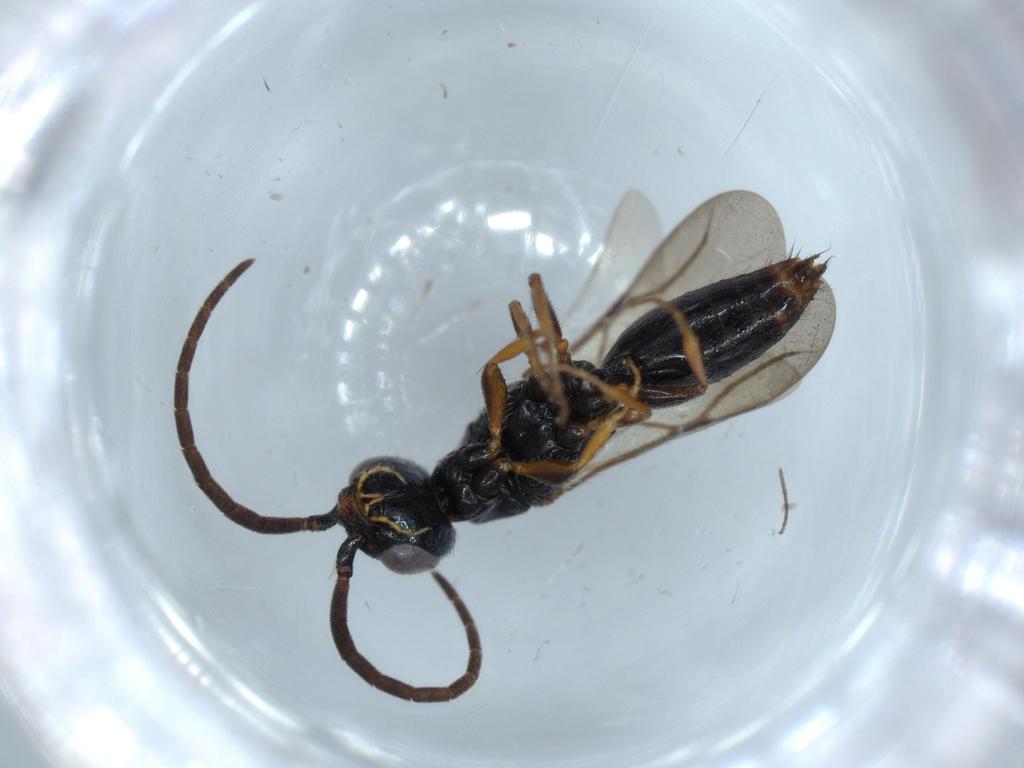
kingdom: Animalia
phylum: Arthropoda
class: Insecta
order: Hymenoptera
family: Bethylidae
